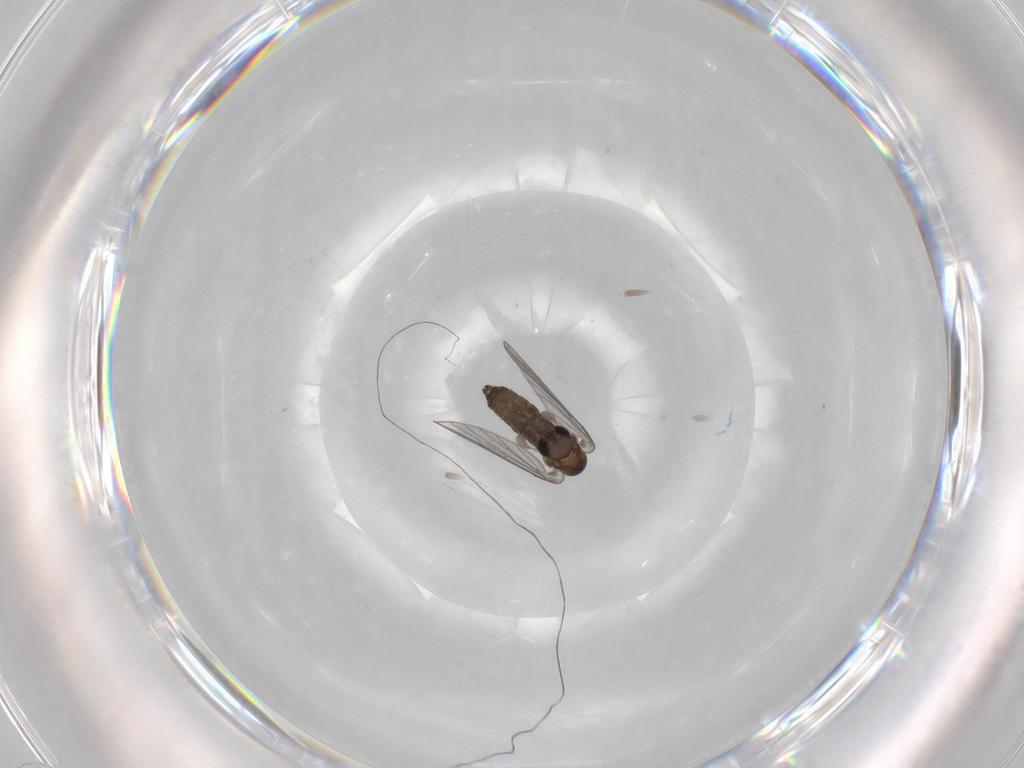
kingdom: Animalia
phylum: Arthropoda
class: Insecta
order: Diptera
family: Psychodidae
